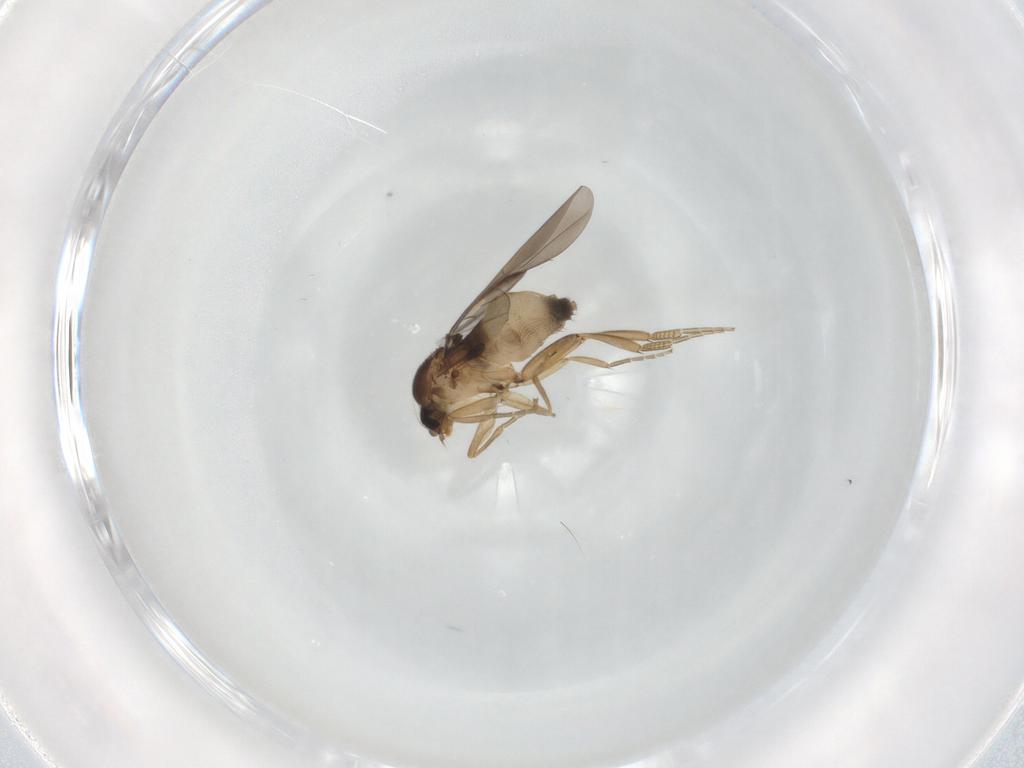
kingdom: Animalia
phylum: Arthropoda
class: Insecta
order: Diptera
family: Phoridae
